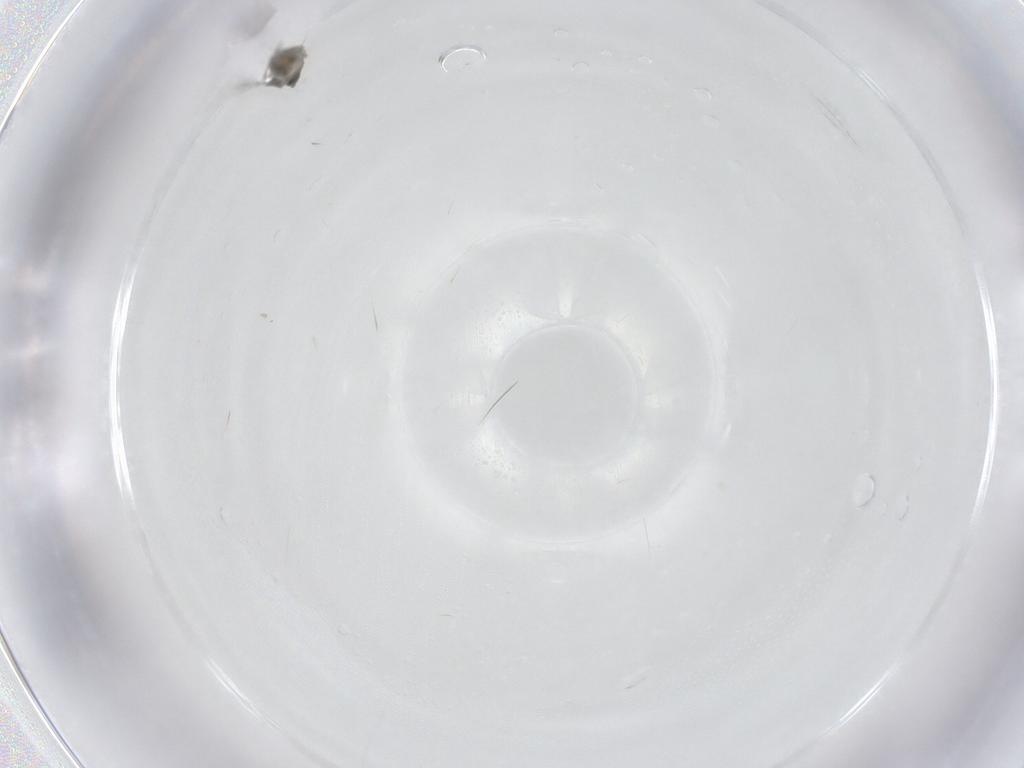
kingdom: Animalia
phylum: Arthropoda
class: Insecta
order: Hymenoptera
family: Mymaridae
